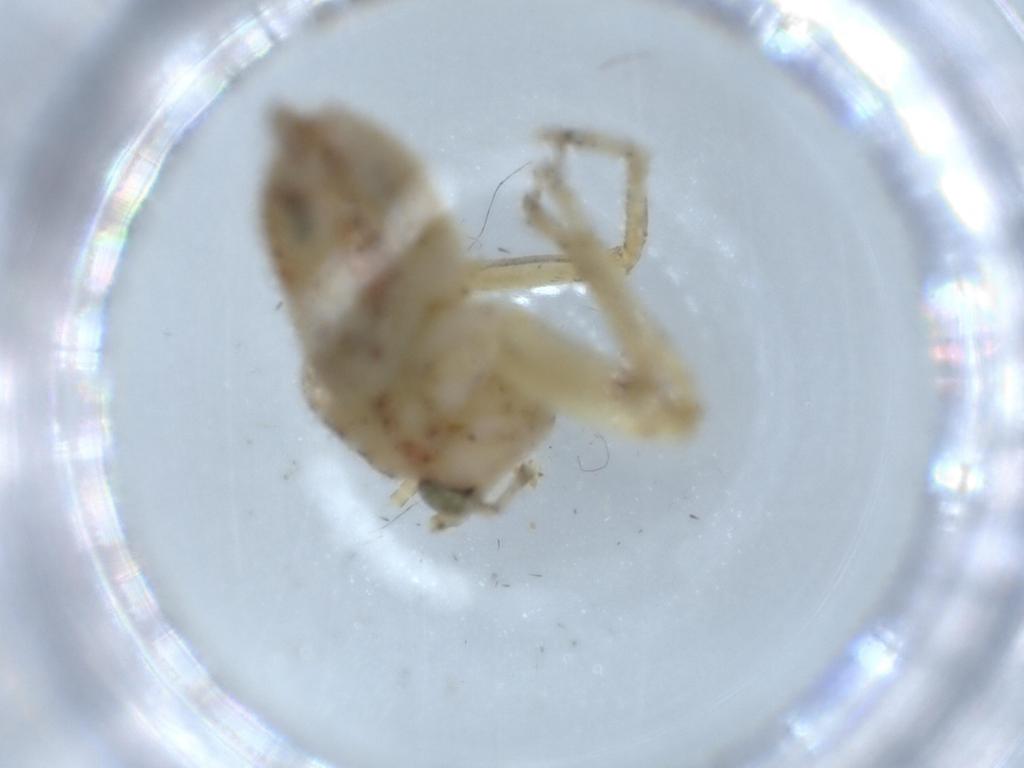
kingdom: Animalia
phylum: Arthropoda
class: Insecta
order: Orthoptera
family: Trigonidiidae
